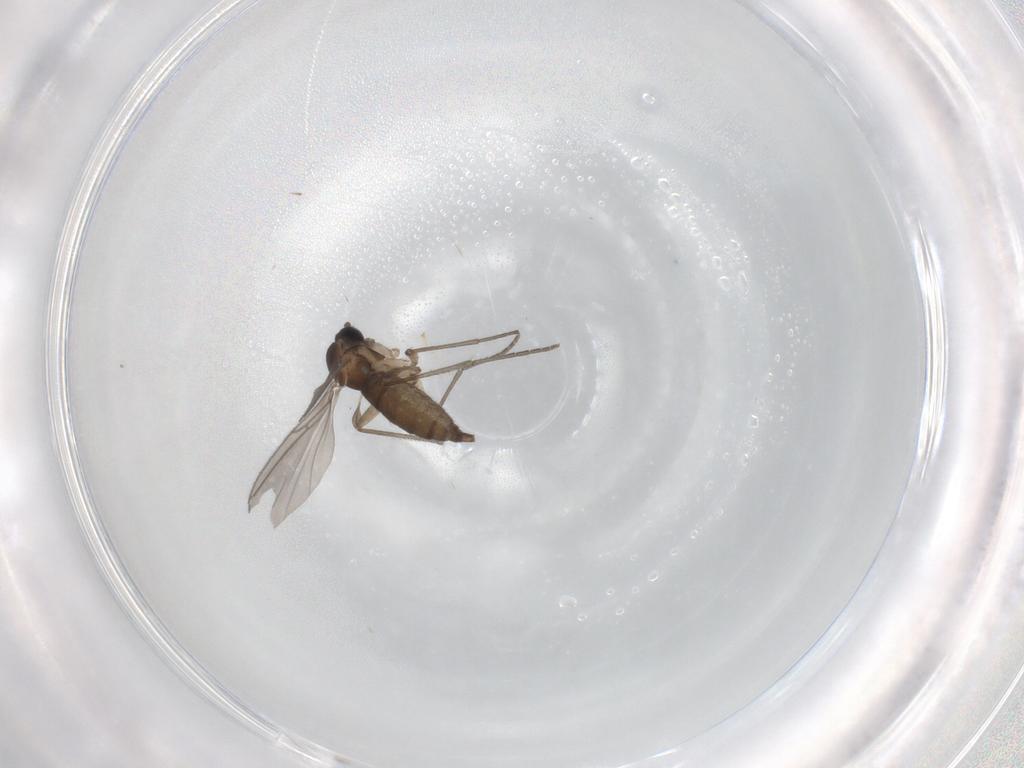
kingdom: Animalia
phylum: Arthropoda
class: Insecta
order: Diptera
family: Sciaridae
